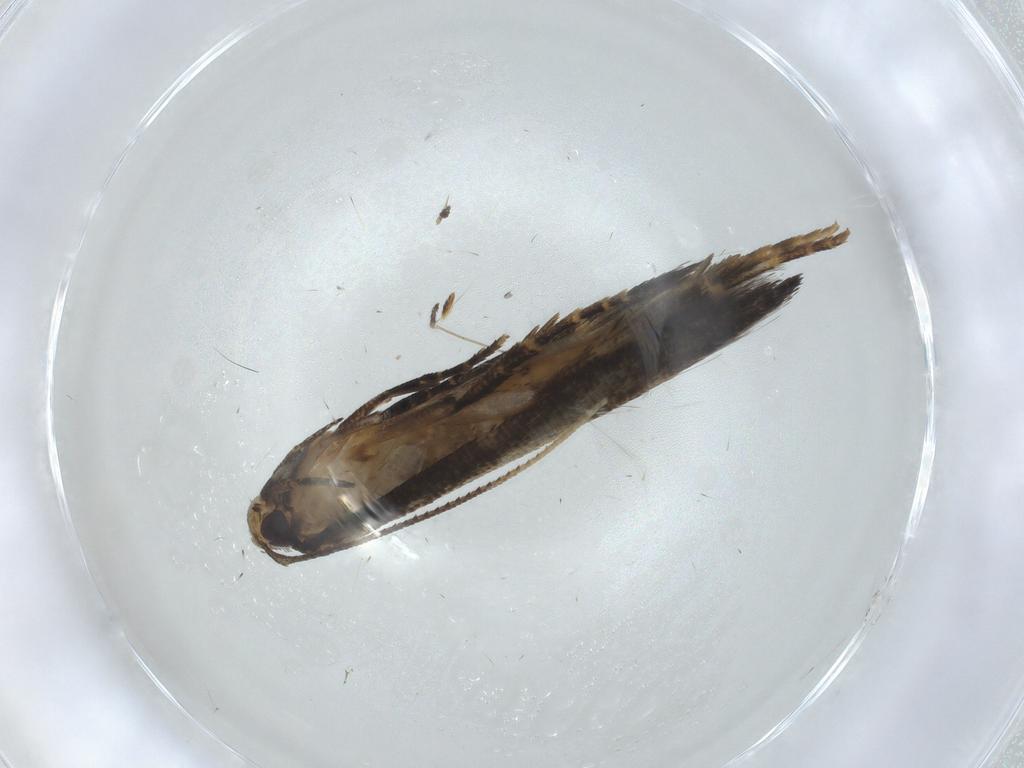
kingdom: Animalia
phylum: Arthropoda
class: Insecta
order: Lepidoptera
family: Cosmopterigidae
